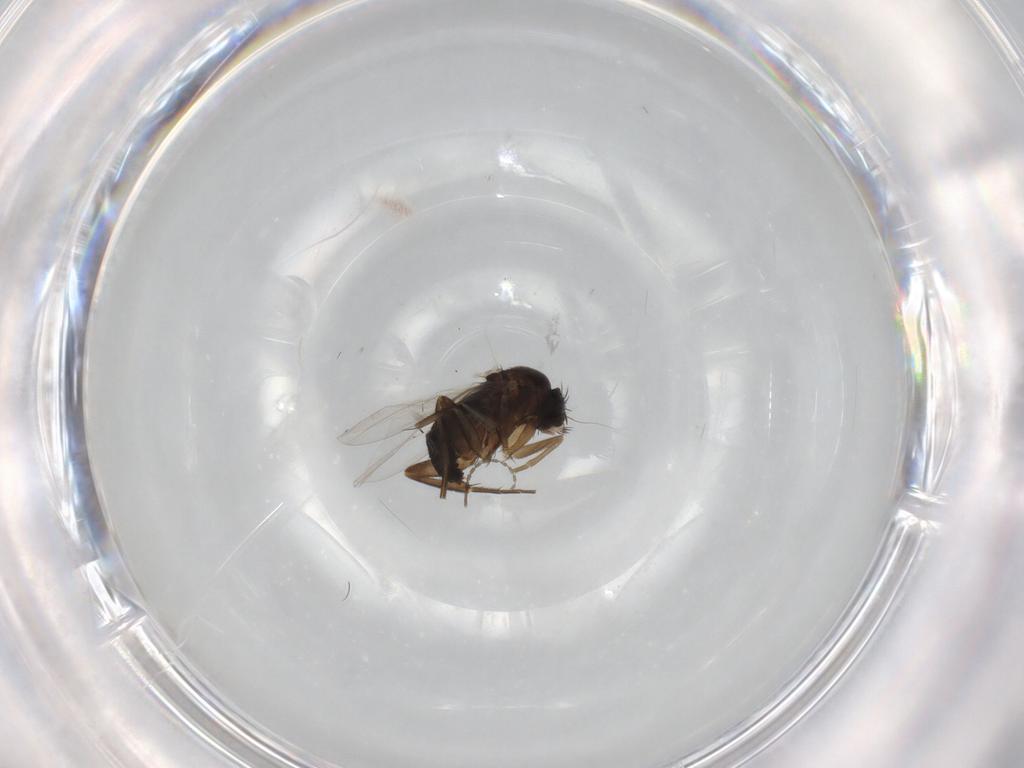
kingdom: Animalia
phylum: Arthropoda
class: Insecta
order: Diptera
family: Phoridae
